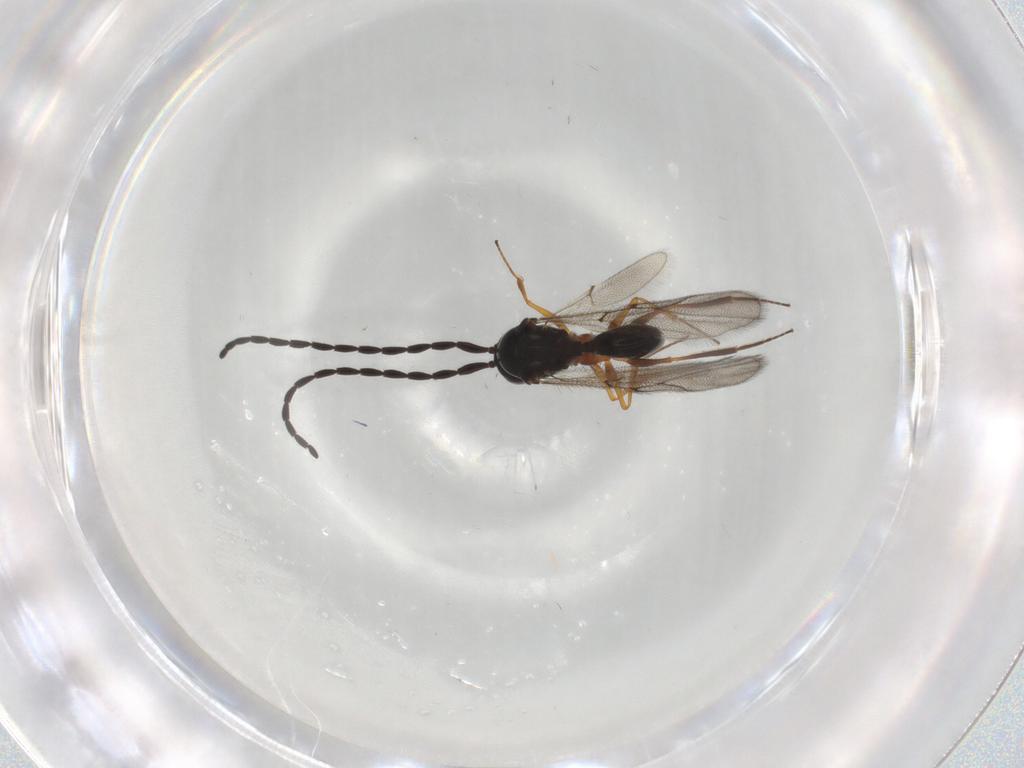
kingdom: Animalia
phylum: Arthropoda
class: Insecta
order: Hymenoptera
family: Figitidae
